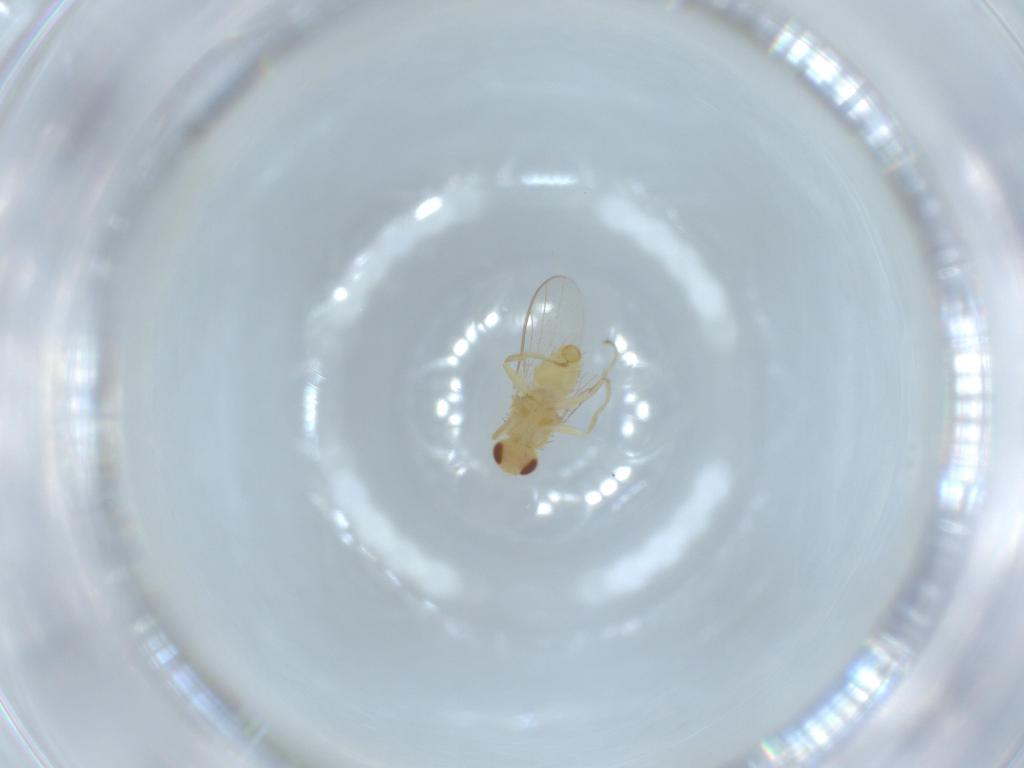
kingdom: Animalia
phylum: Arthropoda
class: Insecta
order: Diptera
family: Chloropidae
